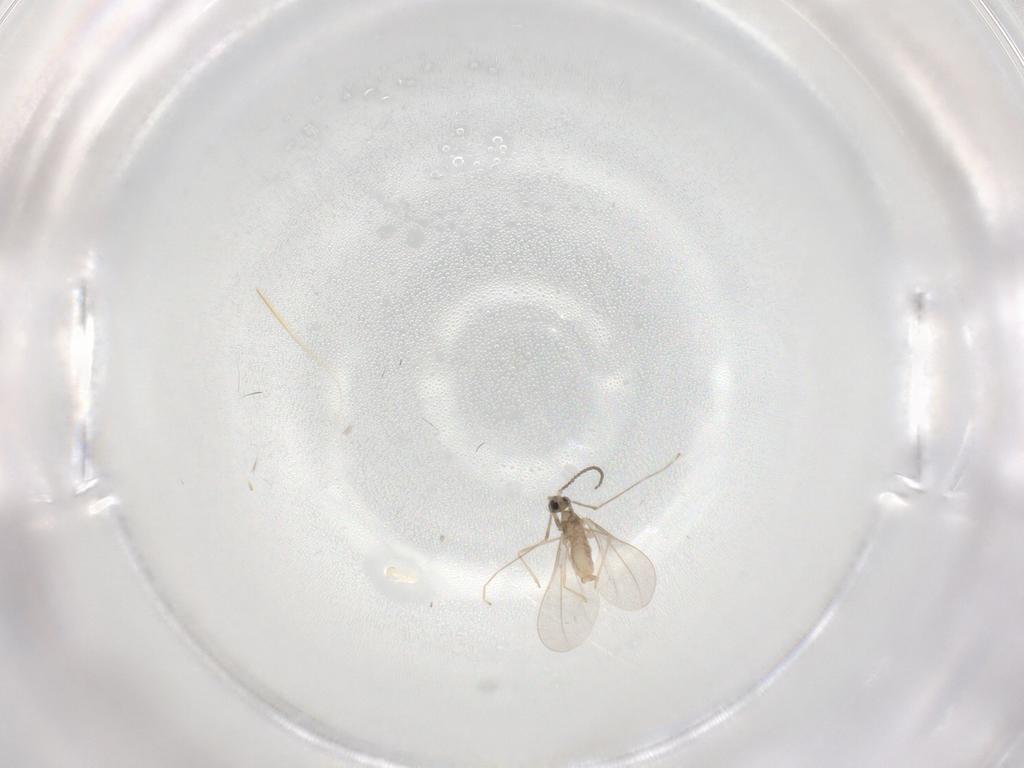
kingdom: Animalia
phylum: Arthropoda
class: Insecta
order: Diptera
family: Cecidomyiidae
